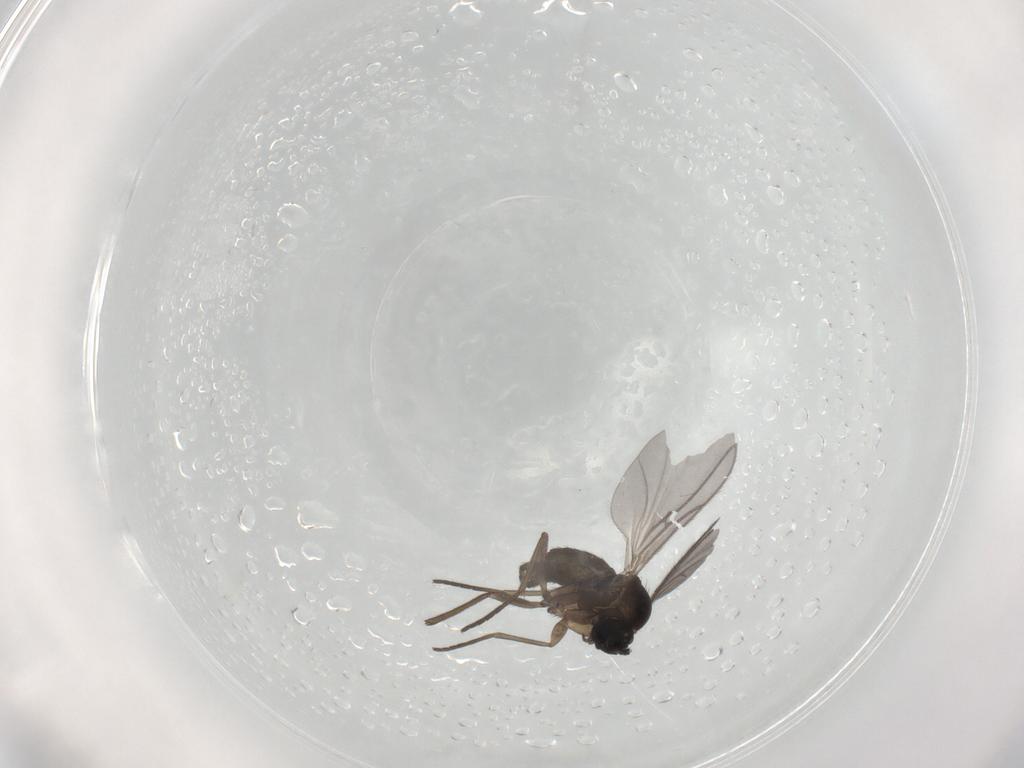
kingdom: Animalia
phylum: Arthropoda
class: Insecta
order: Diptera
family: Sciaridae
